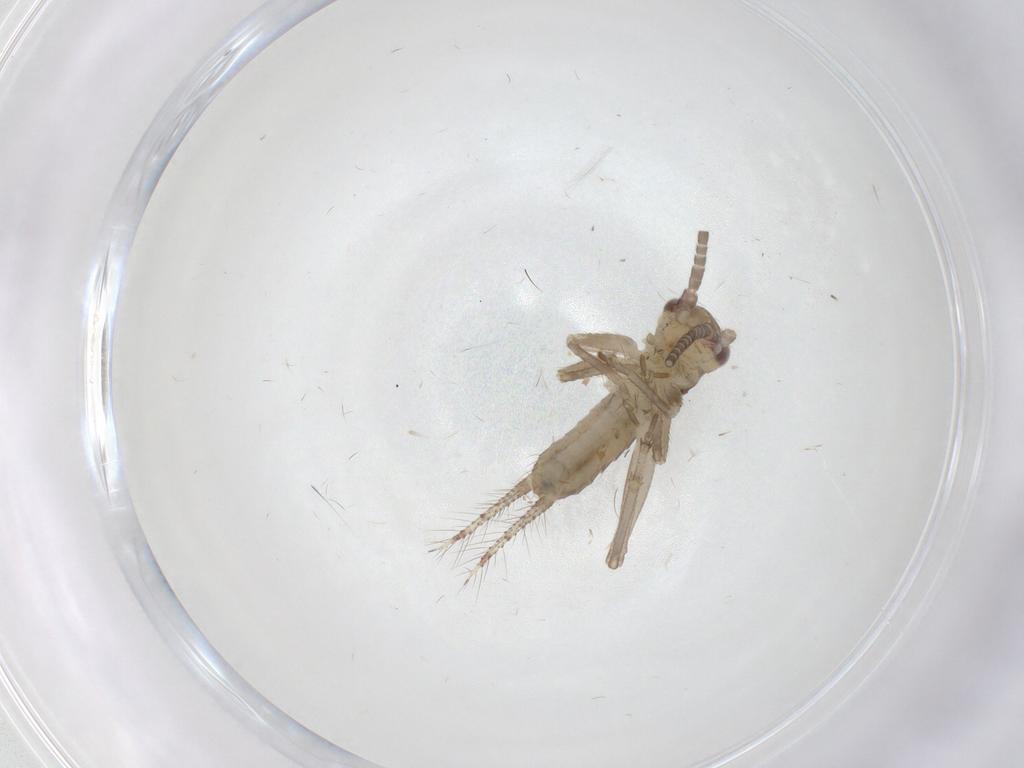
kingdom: Animalia
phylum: Arthropoda
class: Insecta
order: Orthoptera
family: Gryllidae
